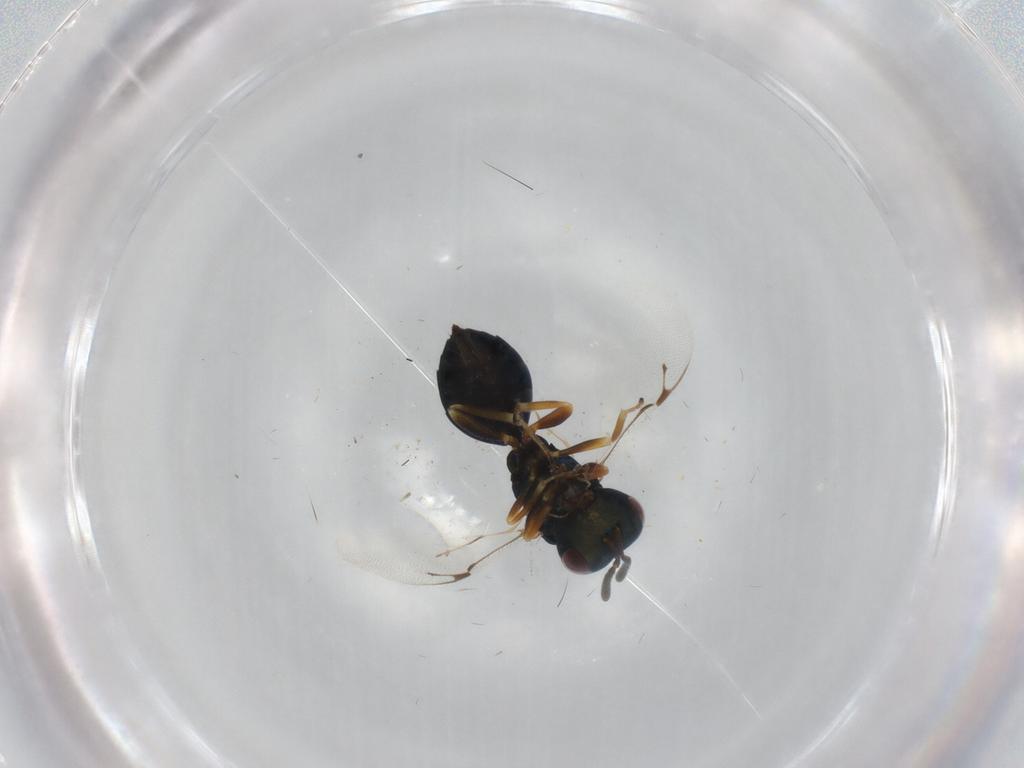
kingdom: Animalia
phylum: Arthropoda
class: Insecta
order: Hymenoptera
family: Pteromalidae
